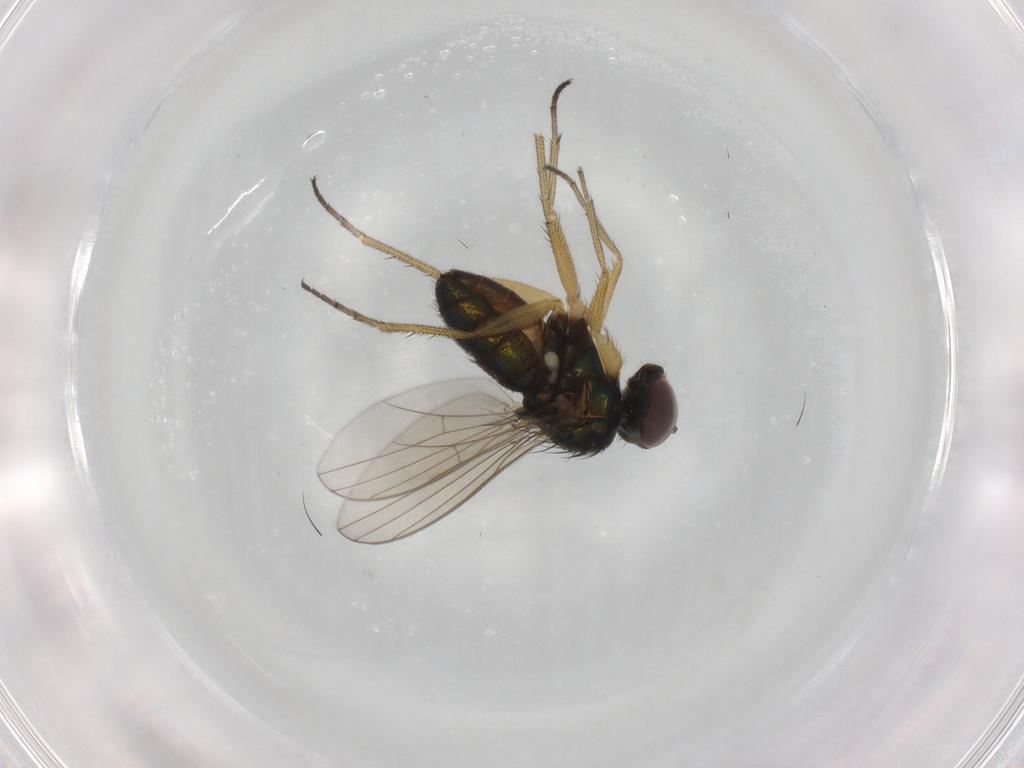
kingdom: Animalia
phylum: Arthropoda
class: Insecta
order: Diptera
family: Dolichopodidae
